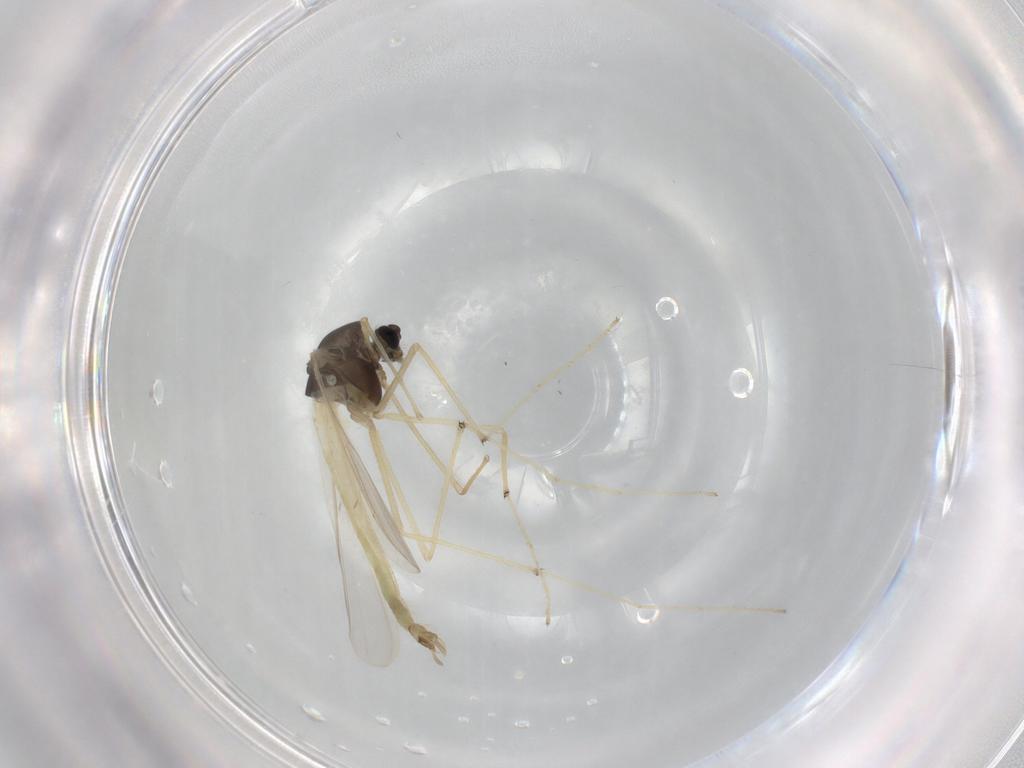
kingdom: Animalia
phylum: Arthropoda
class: Insecta
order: Diptera
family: Chironomidae
